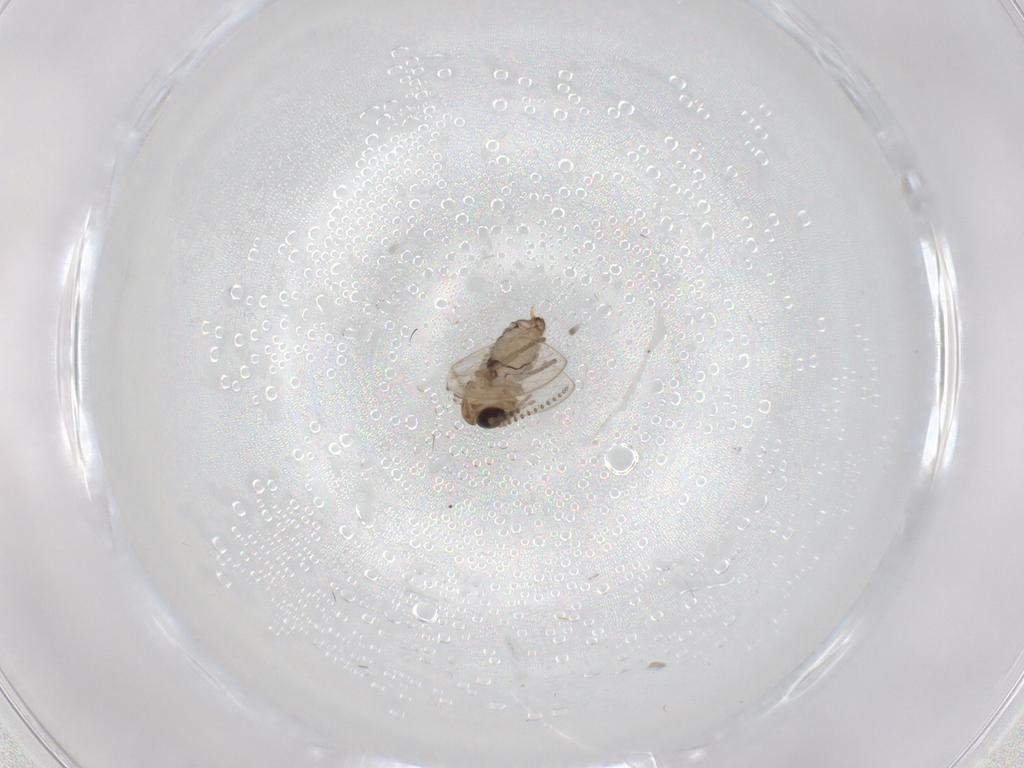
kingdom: Animalia
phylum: Arthropoda
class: Insecta
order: Diptera
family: Psychodidae
